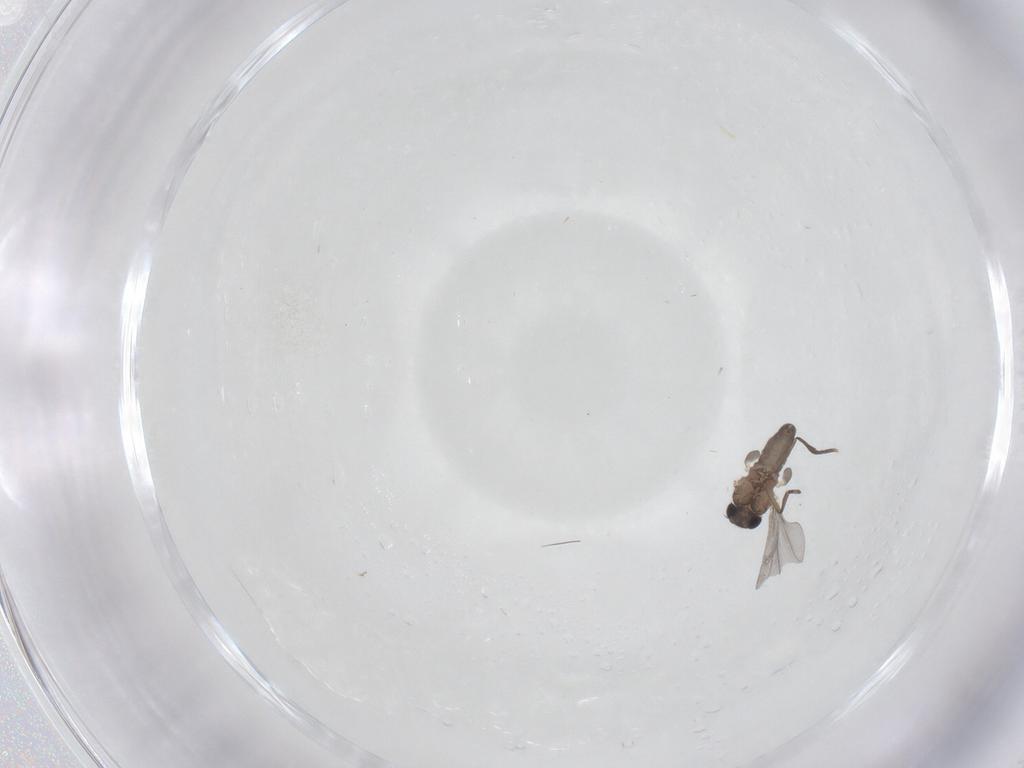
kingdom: Animalia
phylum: Arthropoda
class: Insecta
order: Diptera
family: Phoridae
